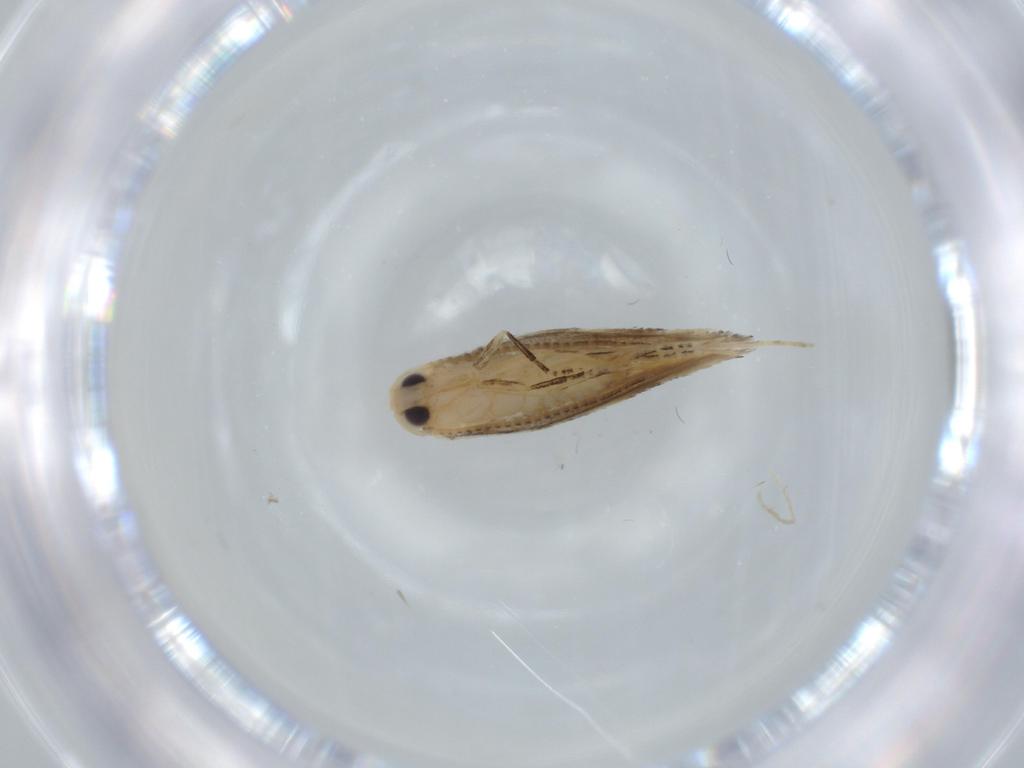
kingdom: Animalia
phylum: Arthropoda
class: Insecta
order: Lepidoptera
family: Bucculatricidae
